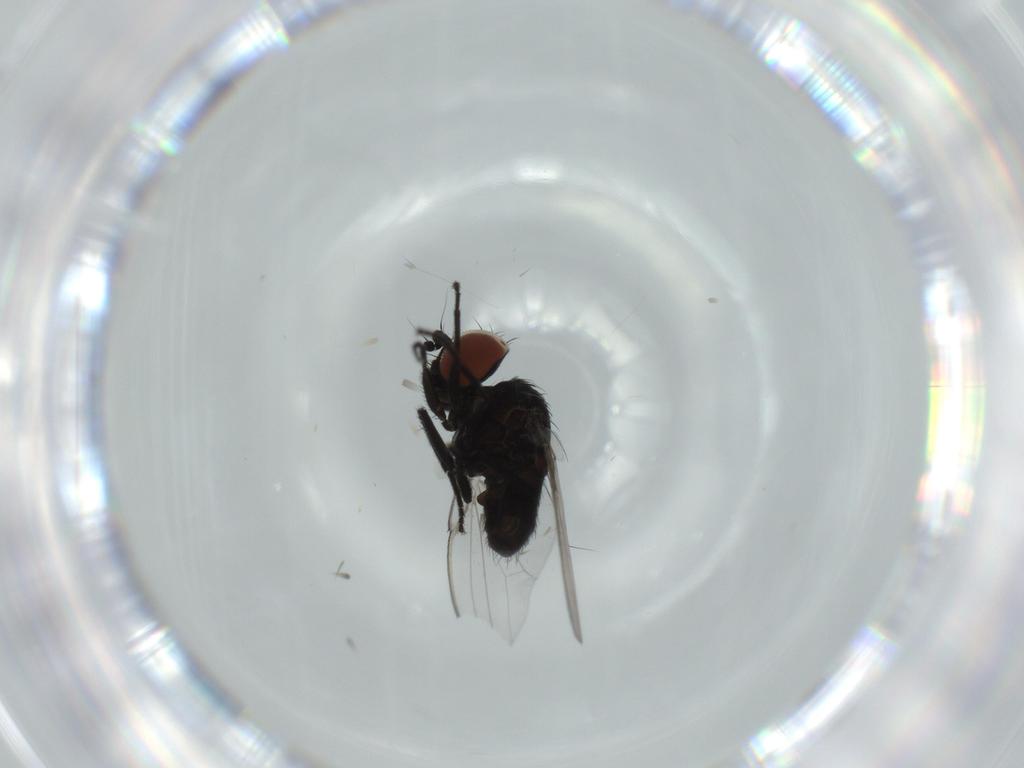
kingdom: Animalia
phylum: Arthropoda
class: Insecta
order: Diptera
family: Milichiidae
